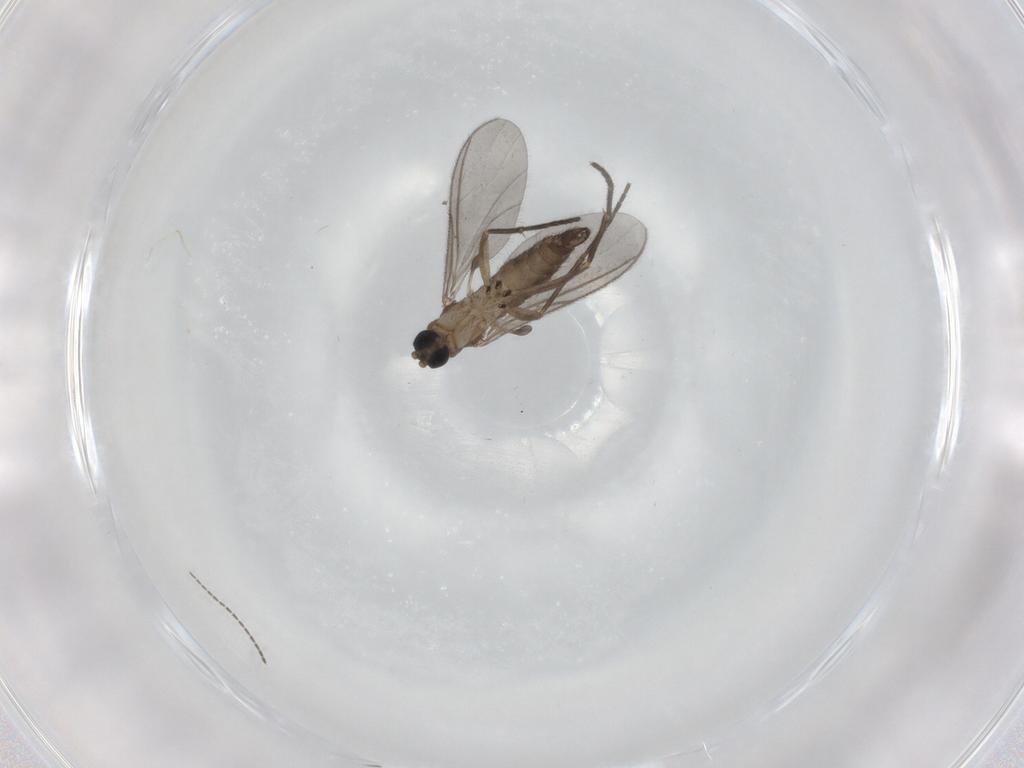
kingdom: Animalia
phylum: Arthropoda
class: Insecta
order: Diptera
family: Sciaridae
